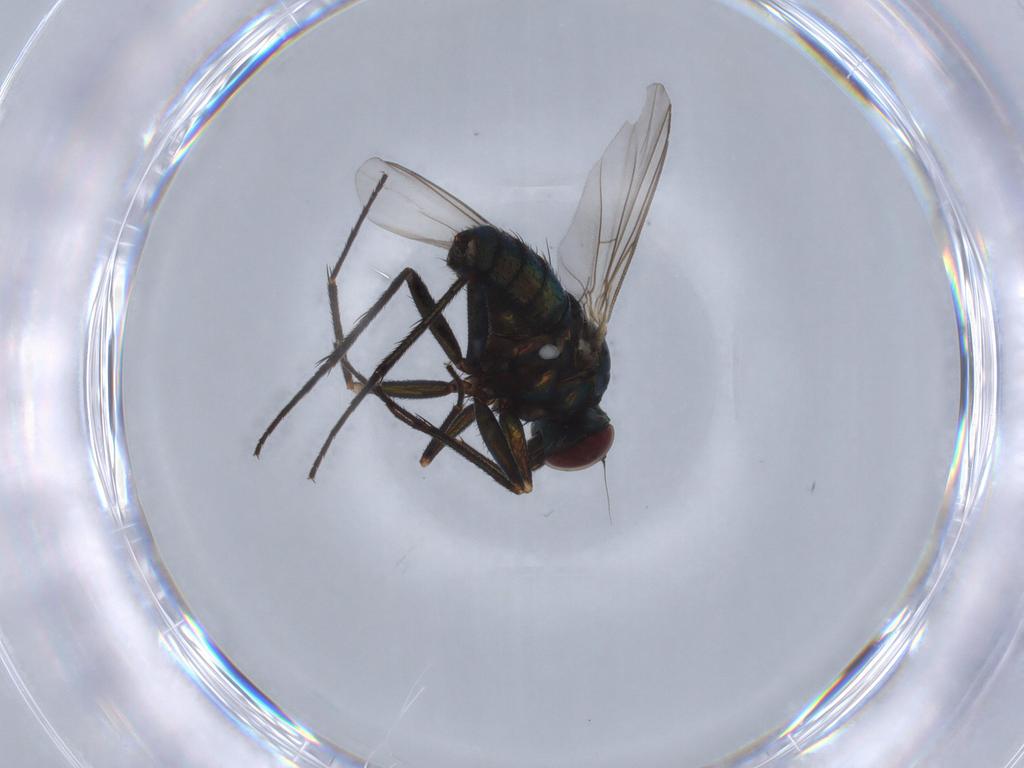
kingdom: Animalia
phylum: Arthropoda
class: Insecta
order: Diptera
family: Dolichopodidae
